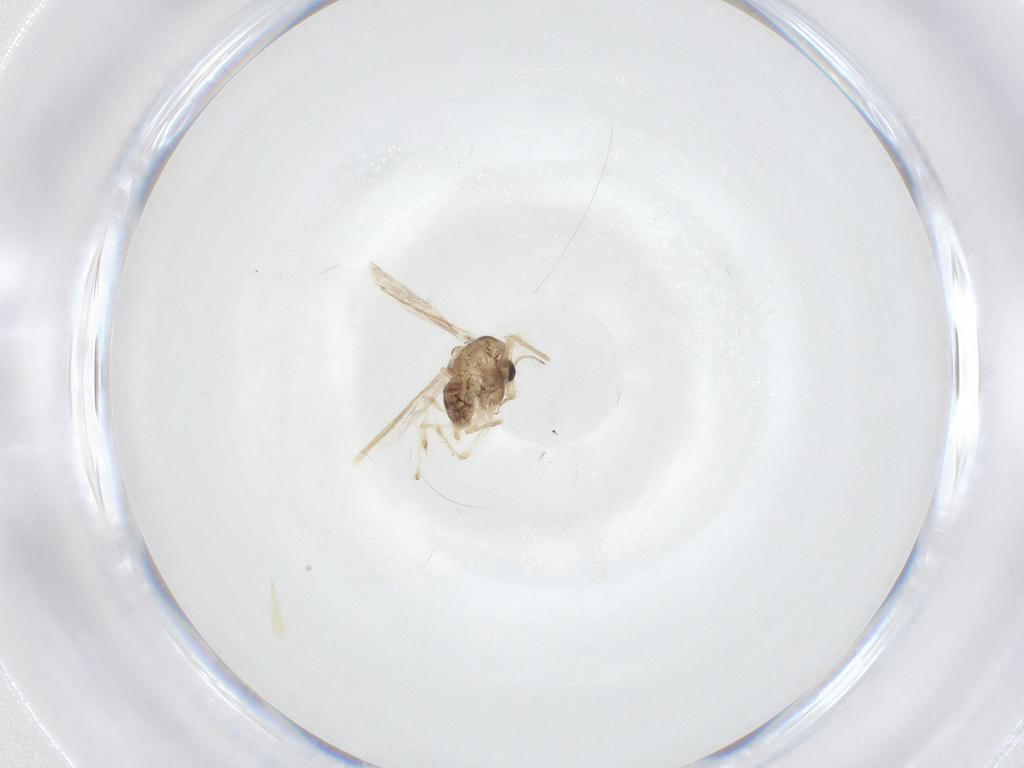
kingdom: Animalia
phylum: Arthropoda
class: Insecta
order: Diptera
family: Chironomidae
